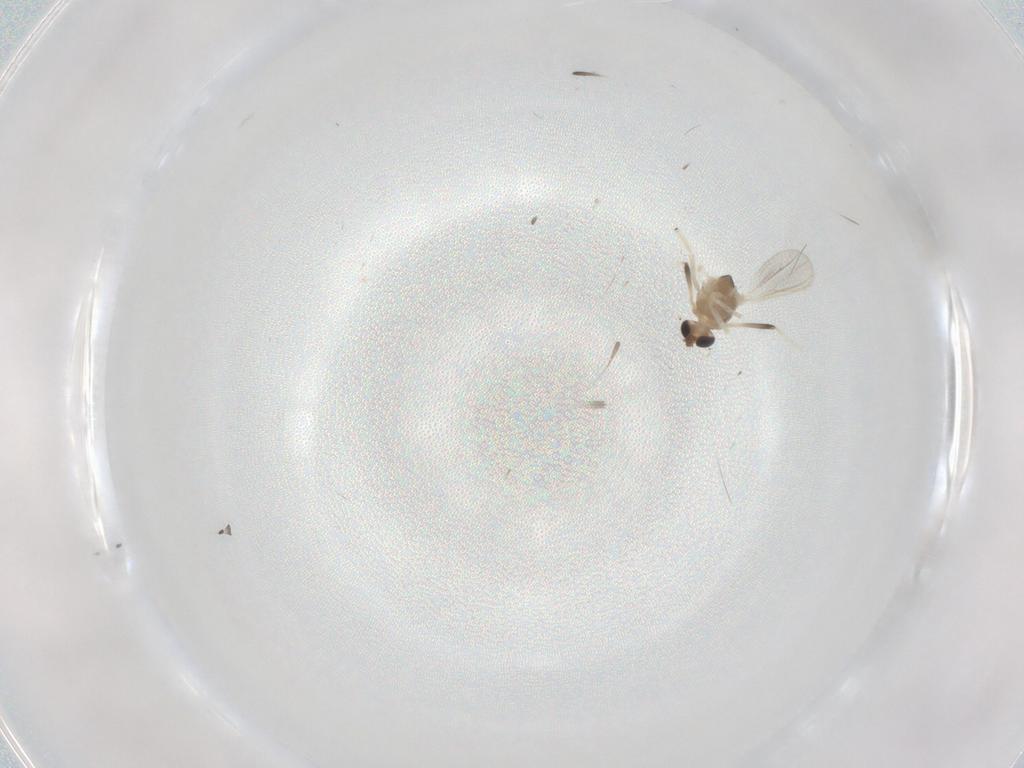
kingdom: Animalia
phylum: Arthropoda
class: Insecta
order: Diptera
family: Chironomidae
